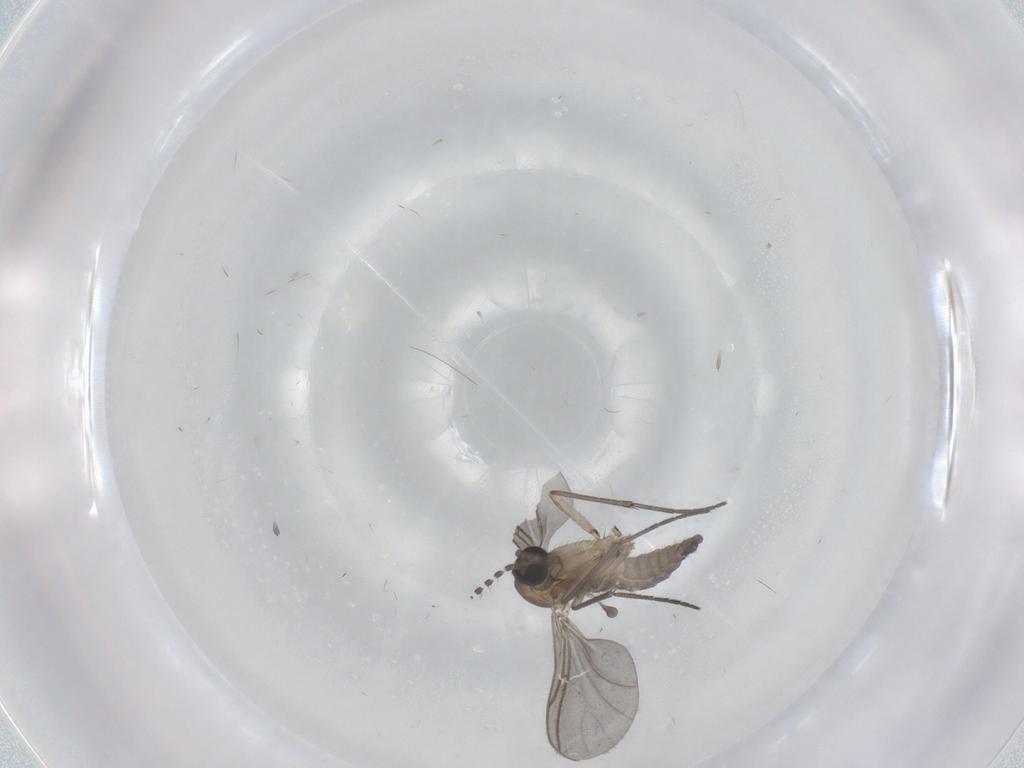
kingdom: Animalia
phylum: Arthropoda
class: Insecta
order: Diptera
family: Sciaridae
